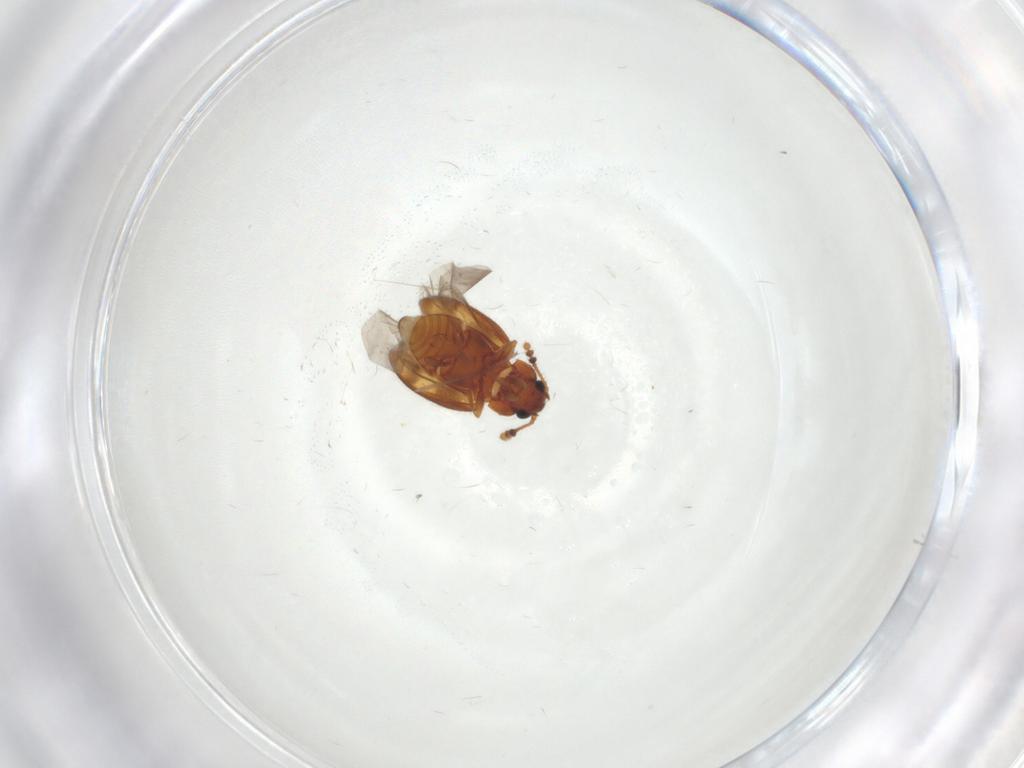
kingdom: Animalia
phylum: Arthropoda
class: Insecta
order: Coleoptera
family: Erotylidae
